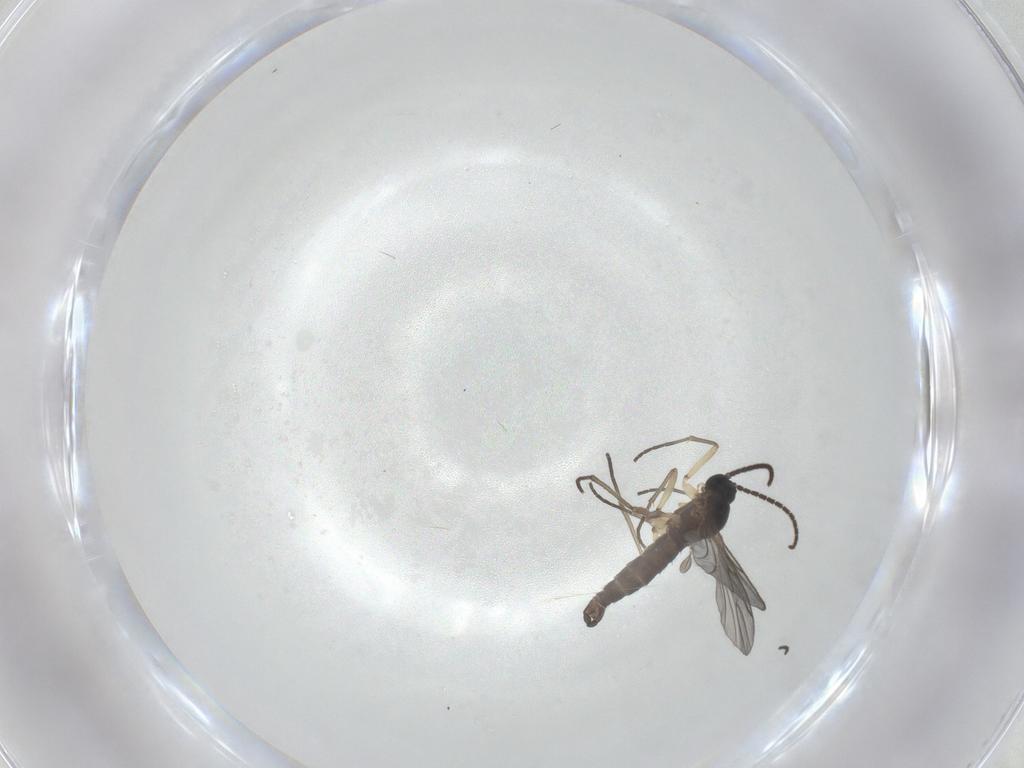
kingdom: Animalia
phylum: Arthropoda
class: Insecta
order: Diptera
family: Sciaridae
